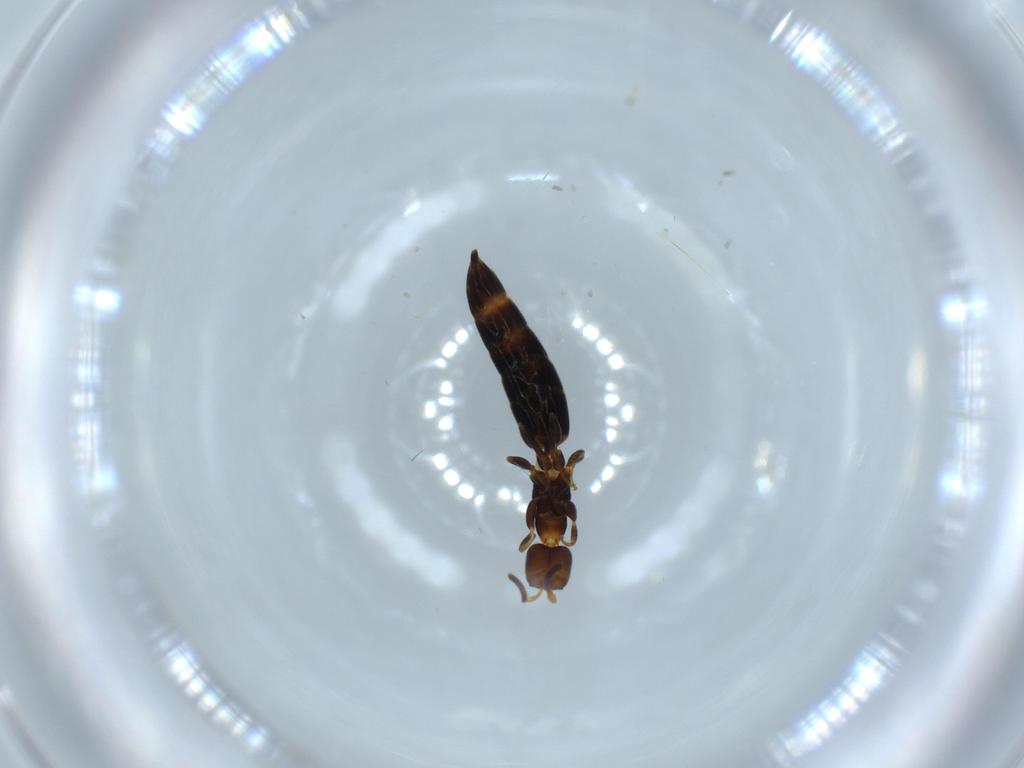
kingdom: Animalia
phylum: Arthropoda
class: Insecta
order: Hymenoptera
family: Bethylidae
